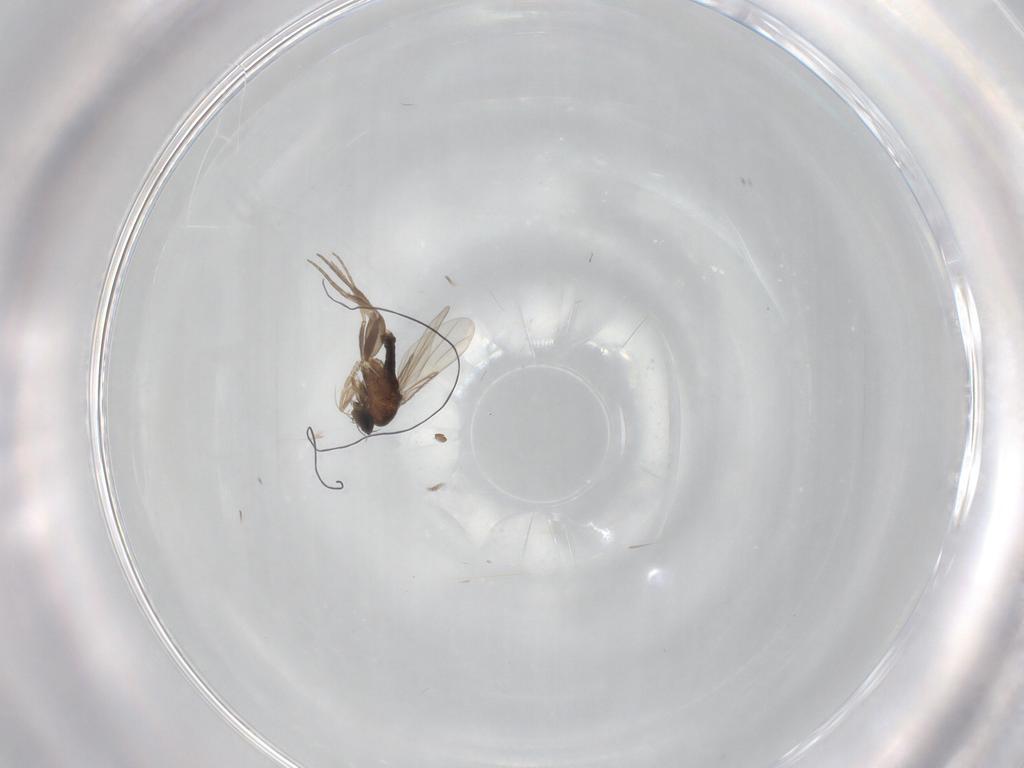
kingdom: Animalia
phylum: Arthropoda
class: Insecta
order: Diptera
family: Phoridae
